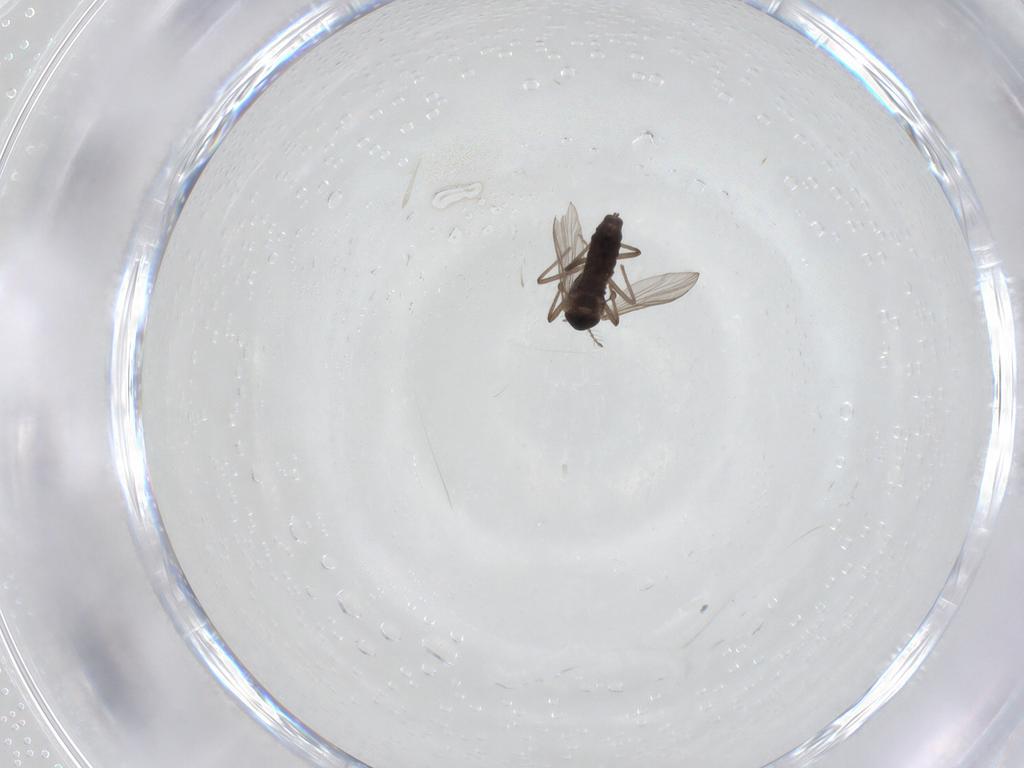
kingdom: Animalia
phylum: Arthropoda
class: Insecta
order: Diptera
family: Chironomidae
